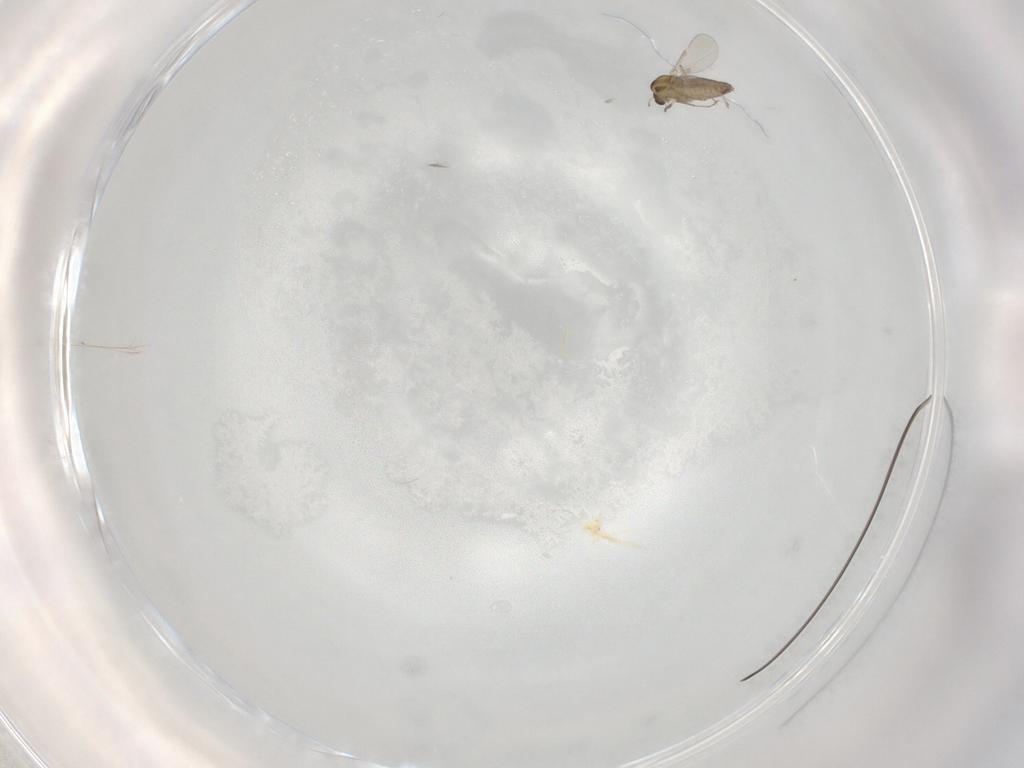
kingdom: Animalia
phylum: Arthropoda
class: Insecta
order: Diptera
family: Chironomidae
